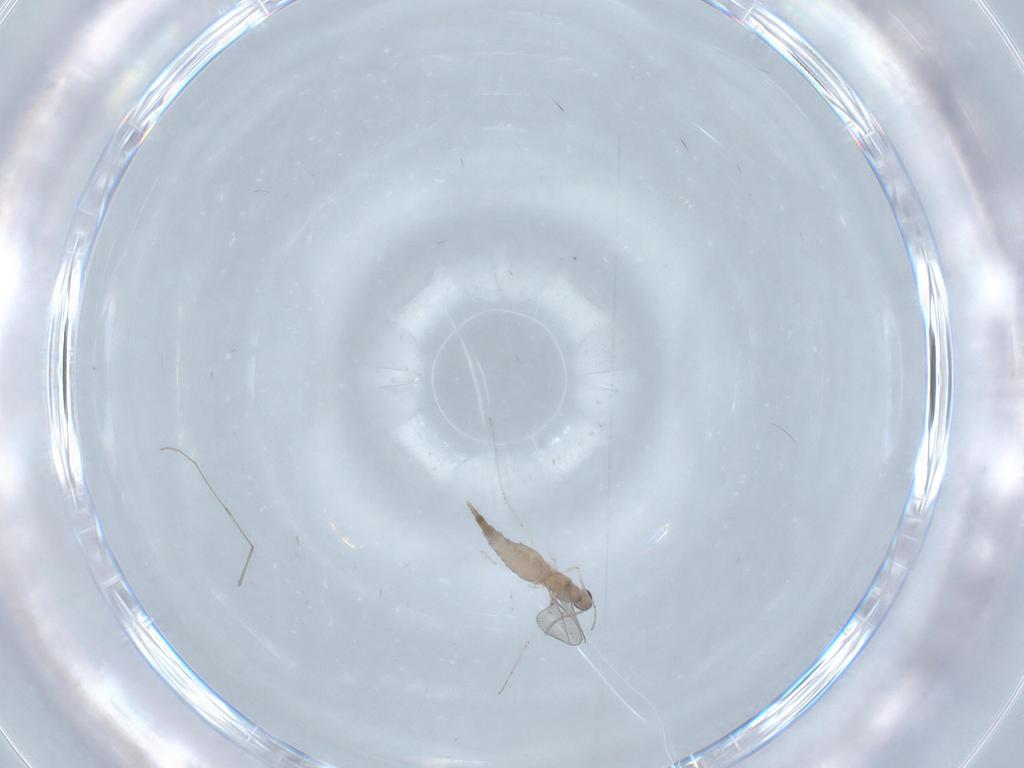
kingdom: Animalia
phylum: Arthropoda
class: Insecta
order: Diptera
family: Cecidomyiidae
